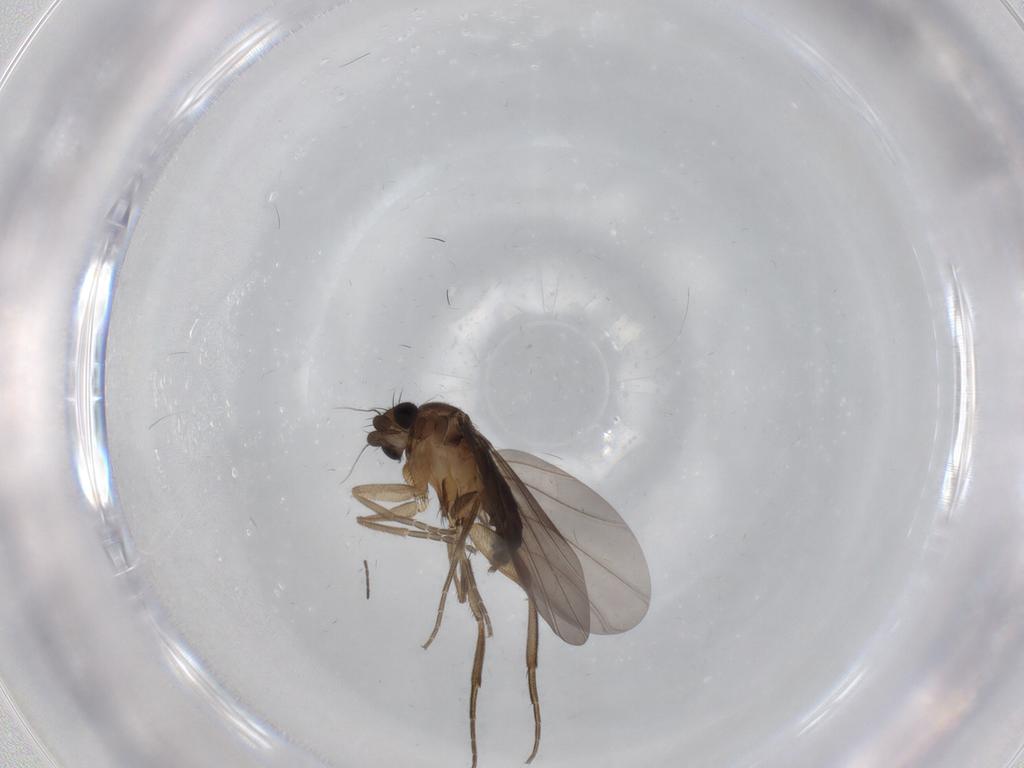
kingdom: Animalia
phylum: Arthropoda
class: Insecta
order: Diptera
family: Phoridae
